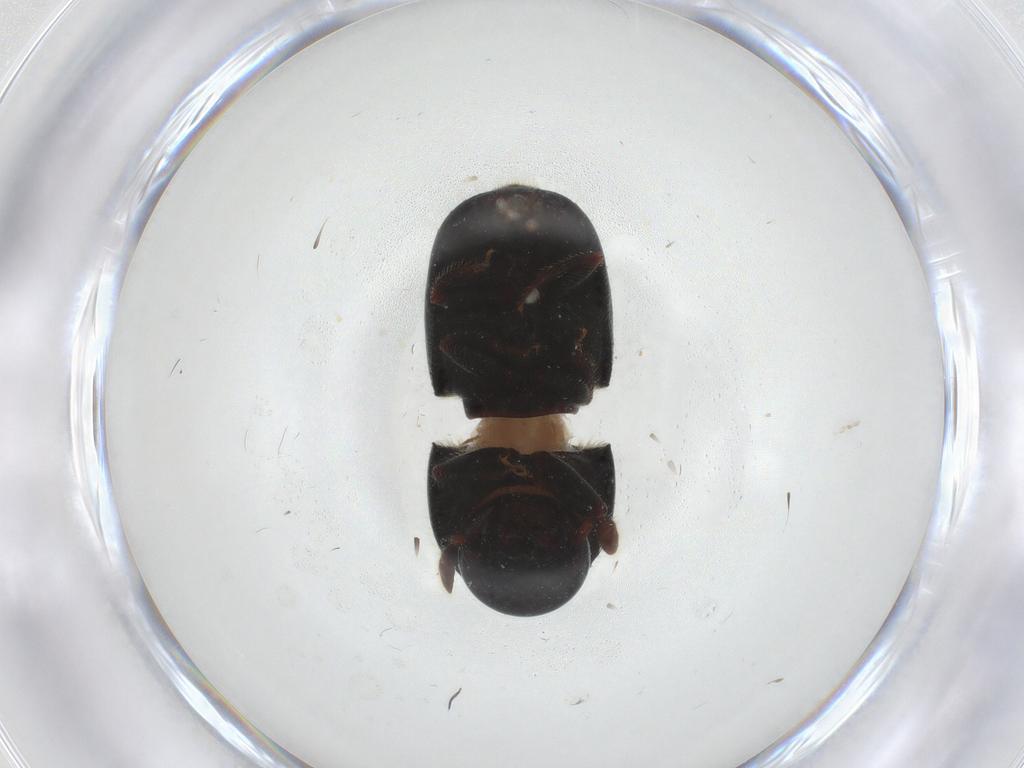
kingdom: Animalia
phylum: Arthropoda
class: Insecta
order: Coleoptera
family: Curculionidae
